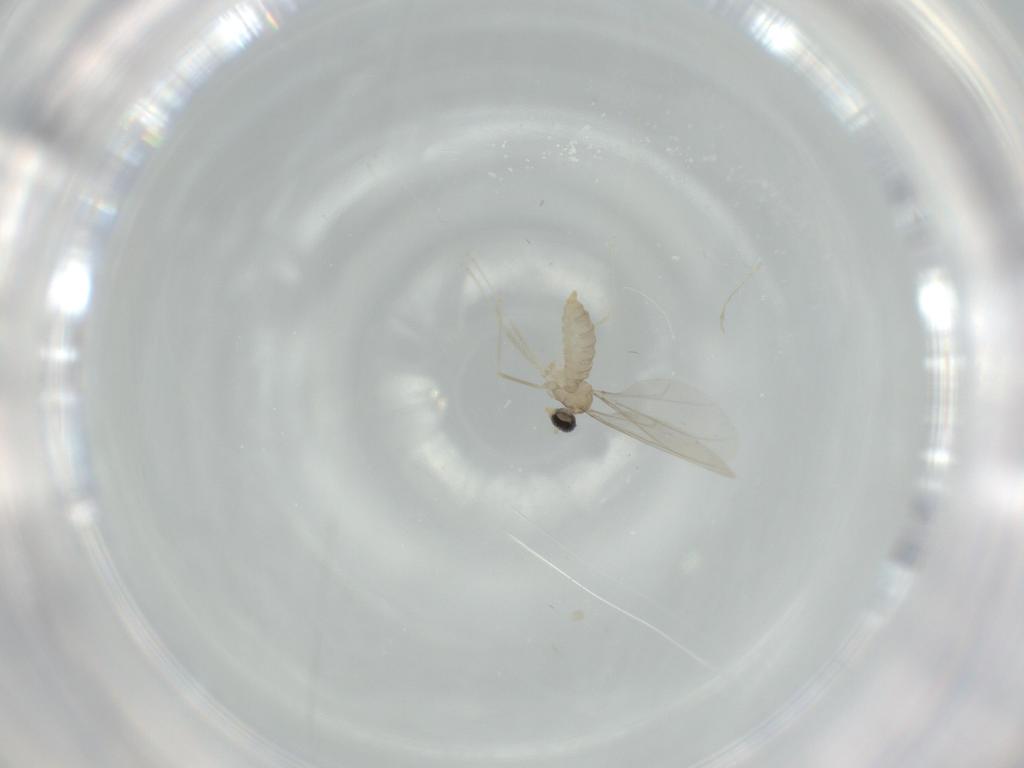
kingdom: Animalia
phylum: Arthropoda
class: Insecta
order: Diptera
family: Cecidomyiidae
